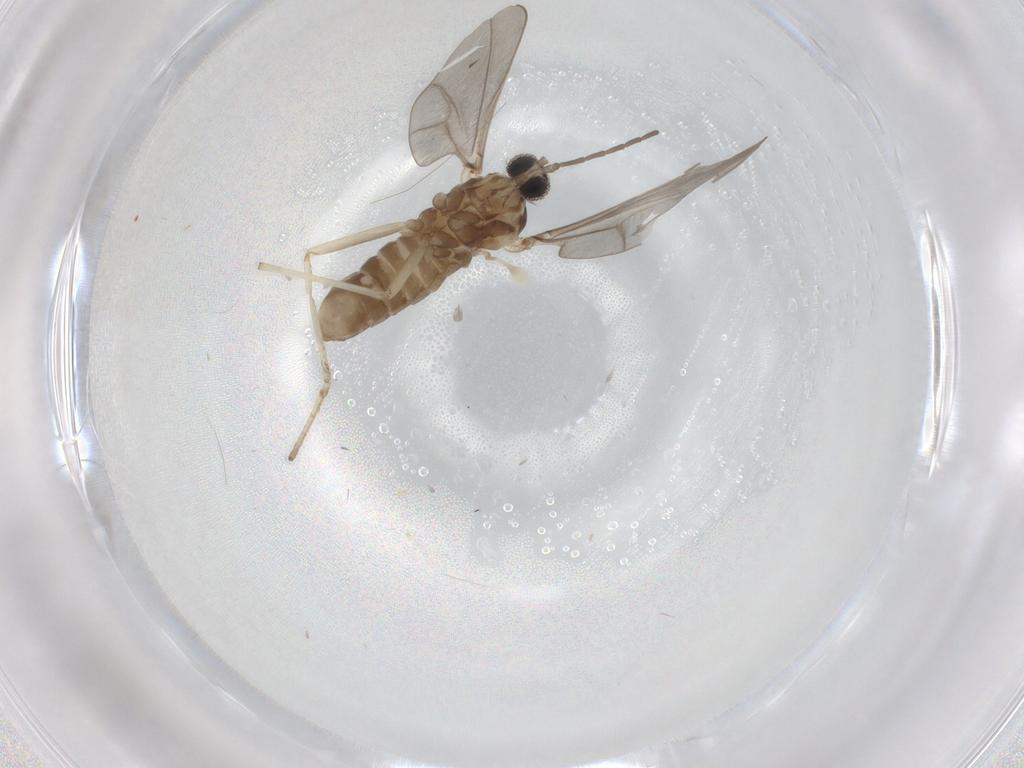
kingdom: Animalia
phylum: Arthropoda
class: Insecta
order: Diptera
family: Cecidomyiidae
